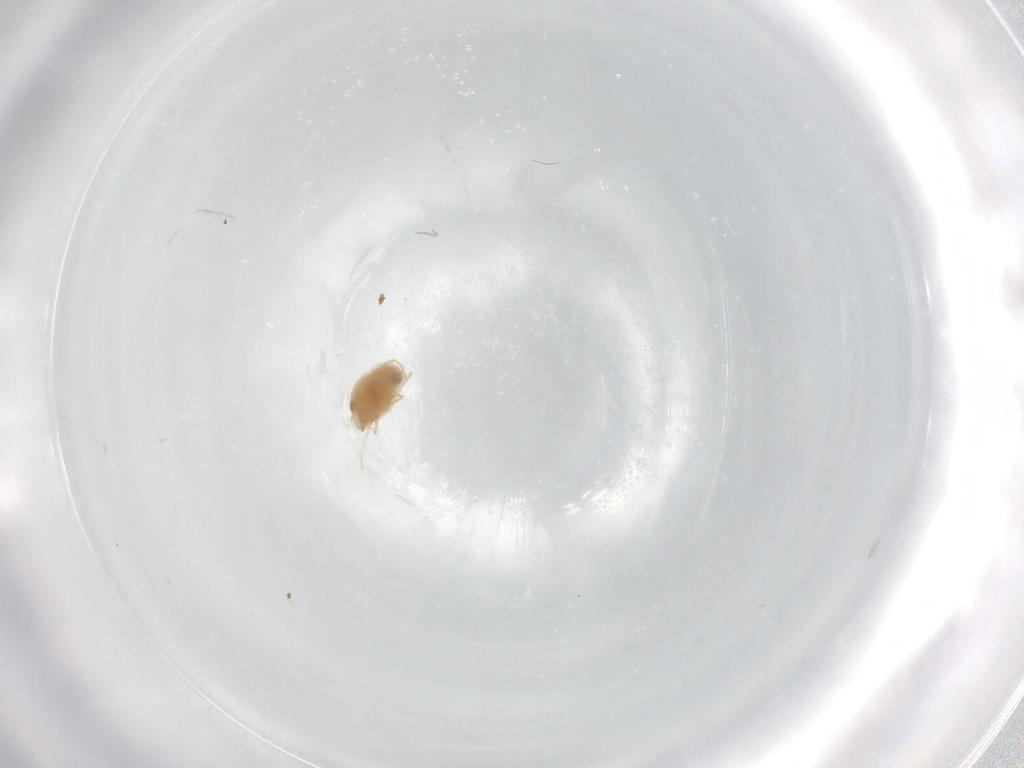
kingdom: Animalia
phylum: Arthropoda
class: Arachnida
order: Trombidiformes
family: Tetranychidae
